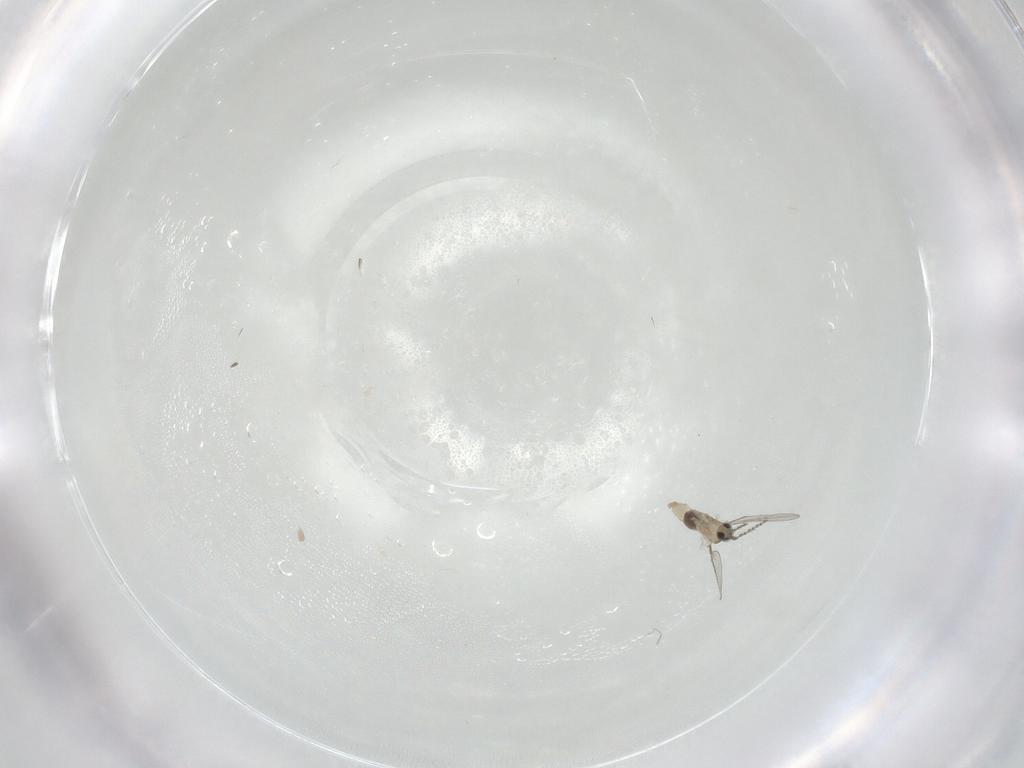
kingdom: Animalia
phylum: Arthropoda
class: Insecta
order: Diptera
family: Cecidomyiidae
